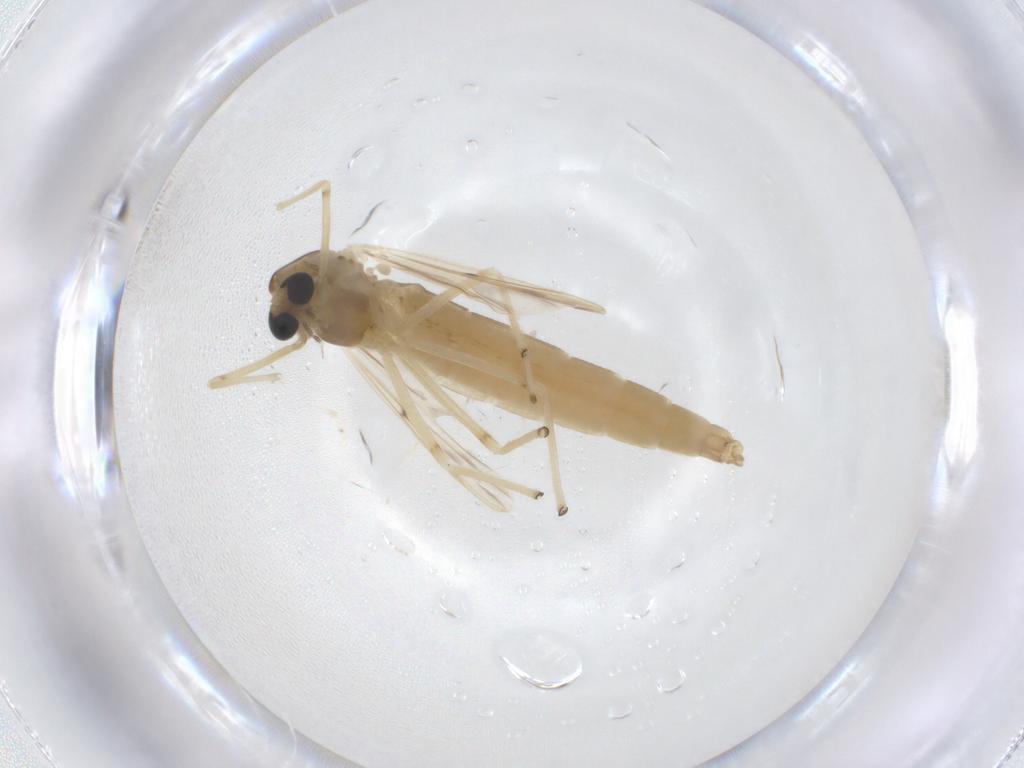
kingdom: Animalia
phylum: Arthropoda
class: Insecta
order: Diptera
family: Chironomidae
